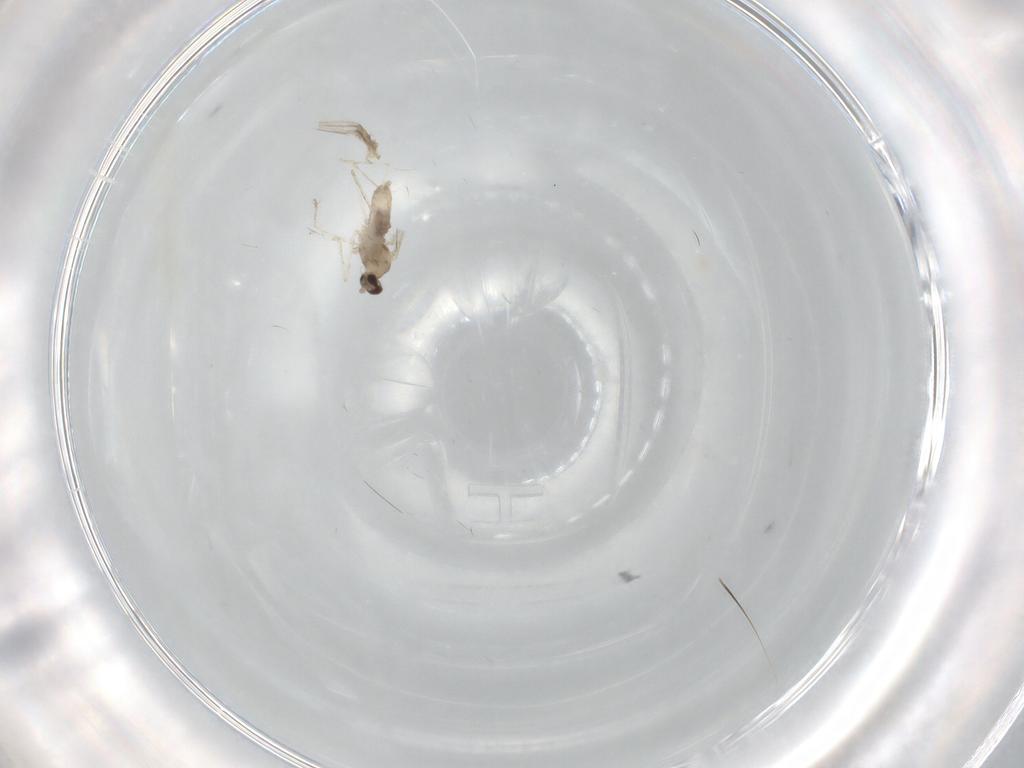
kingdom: Animalia
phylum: Arthropoda
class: Insecta
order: Diptera
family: Cecidomyiidae
